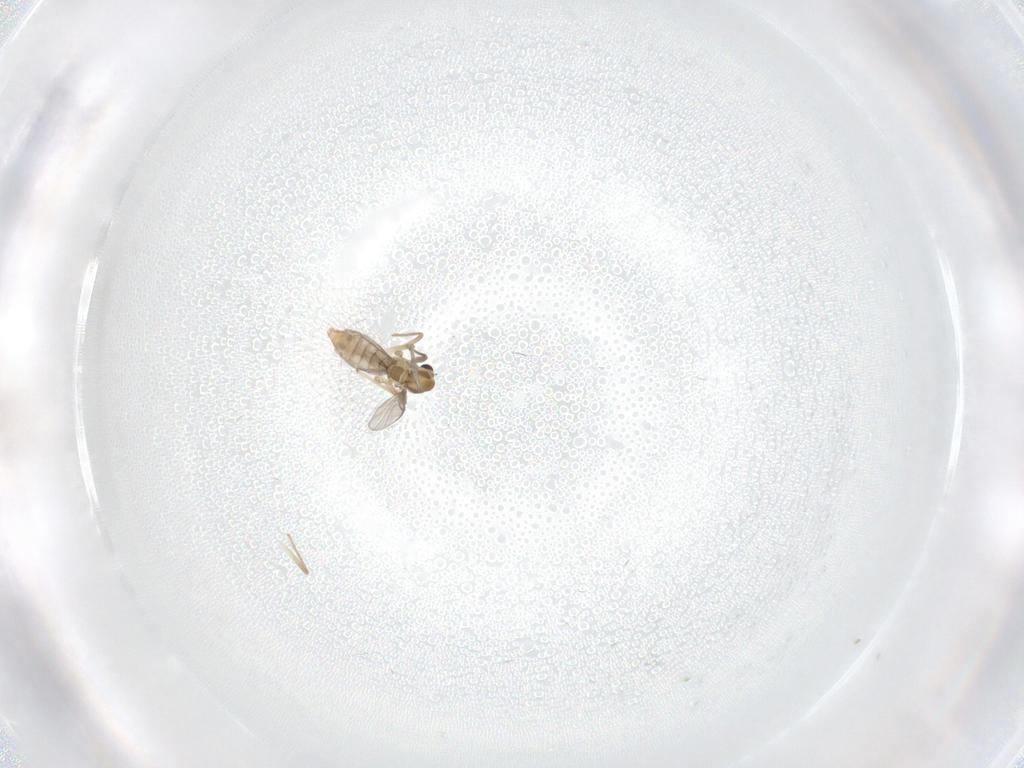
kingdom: Animalia
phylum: Arthropoda
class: Insecta
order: Diptera
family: Chironomidae
